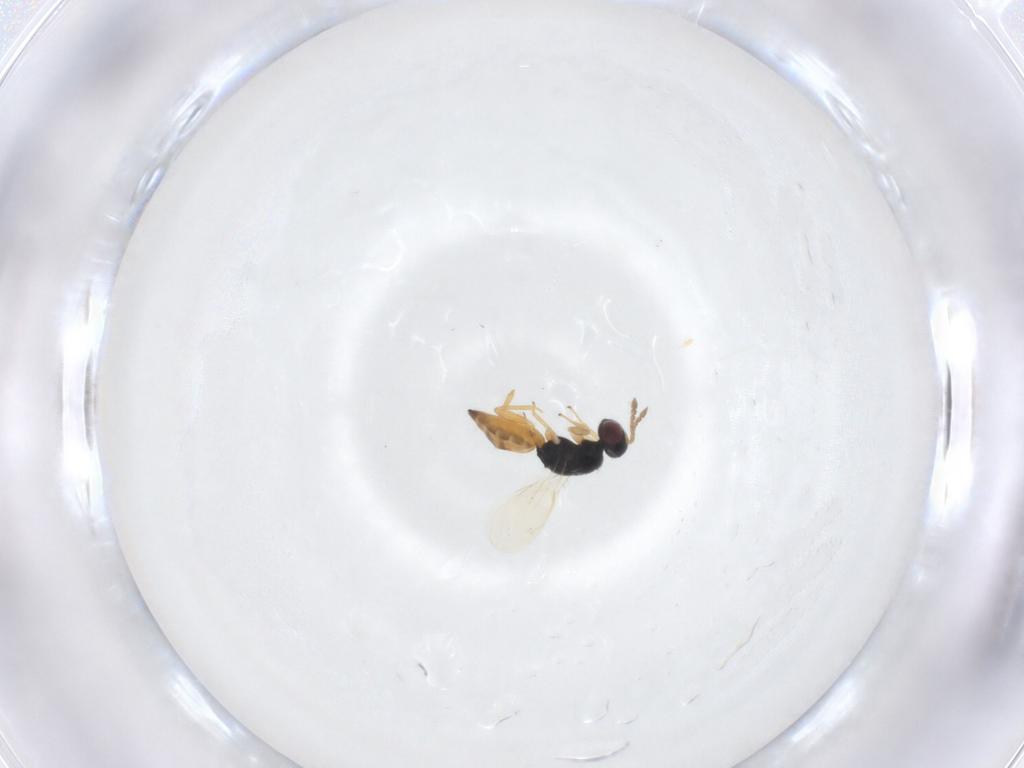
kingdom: Animalia
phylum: Arthropoda
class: Insecta
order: Hymenoptera
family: Eulophidae
